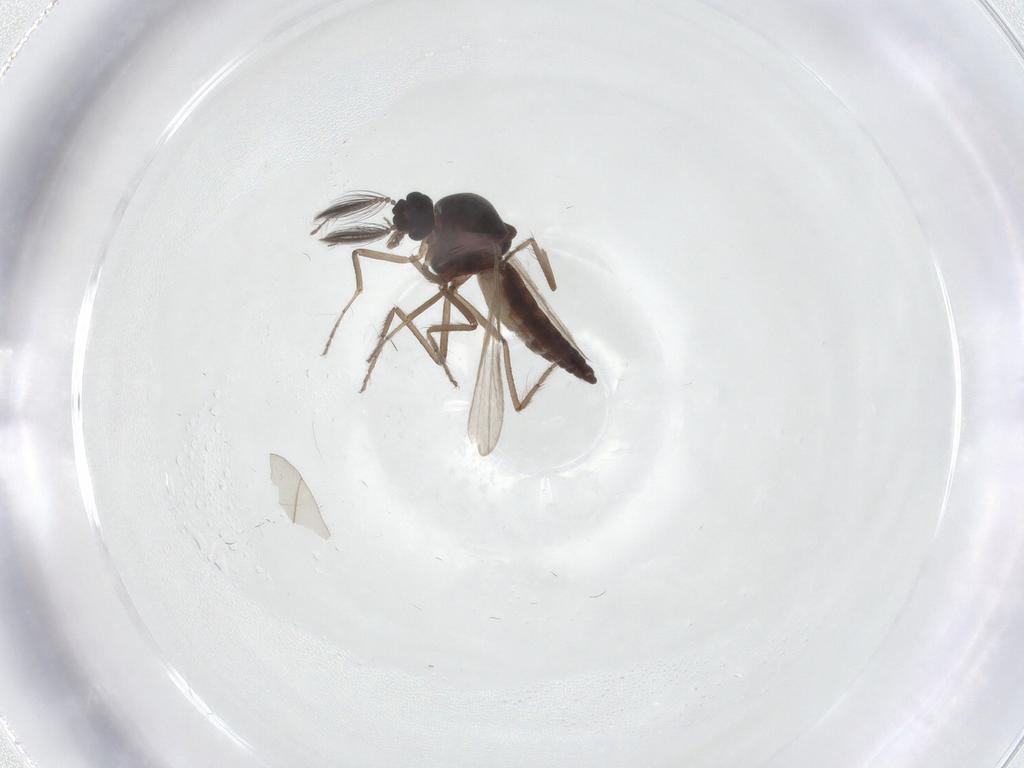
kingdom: Animalia
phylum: Arthropoda
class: Insecta
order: Diptera
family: Ceratopogonidae
